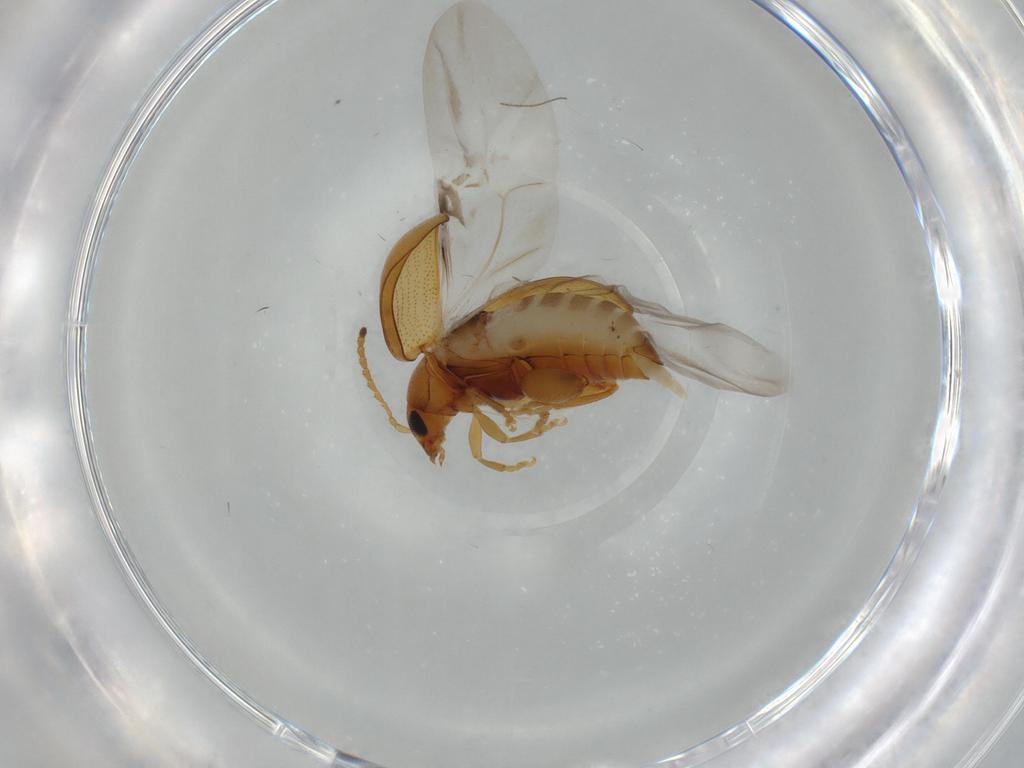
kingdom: Animalia
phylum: Arthropoda
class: Insecta
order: Coleoptera
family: Chrysomelidae
